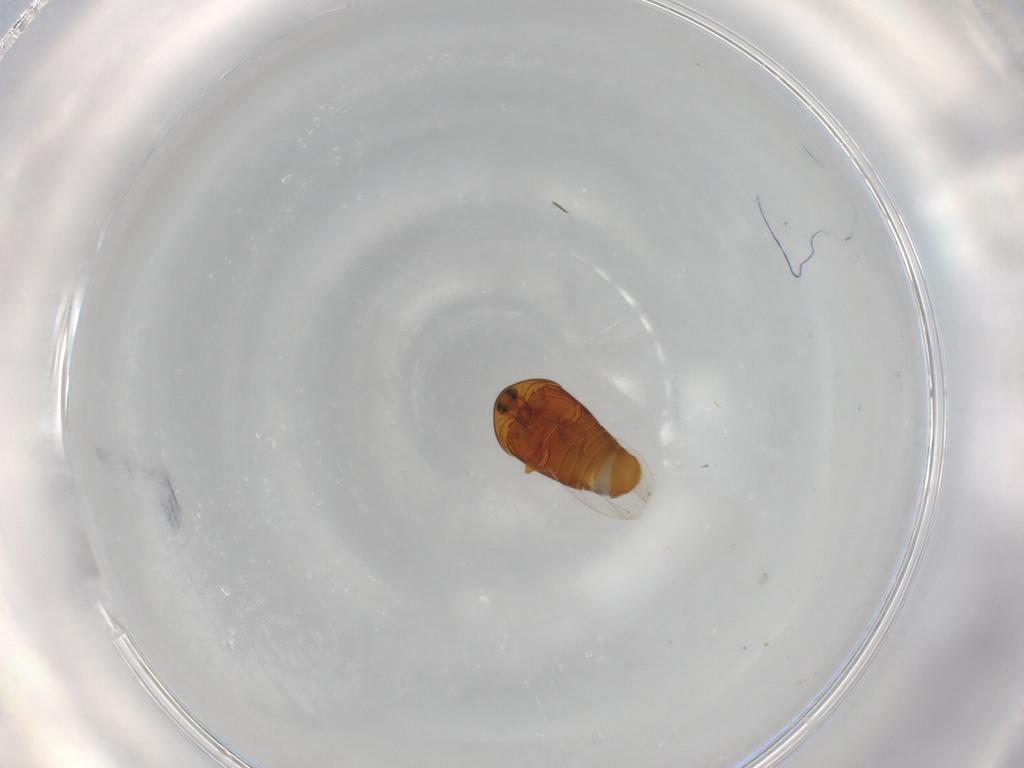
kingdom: Animalia
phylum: Arthropoda
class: Insecta
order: Coleoptera
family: Corylophidae
